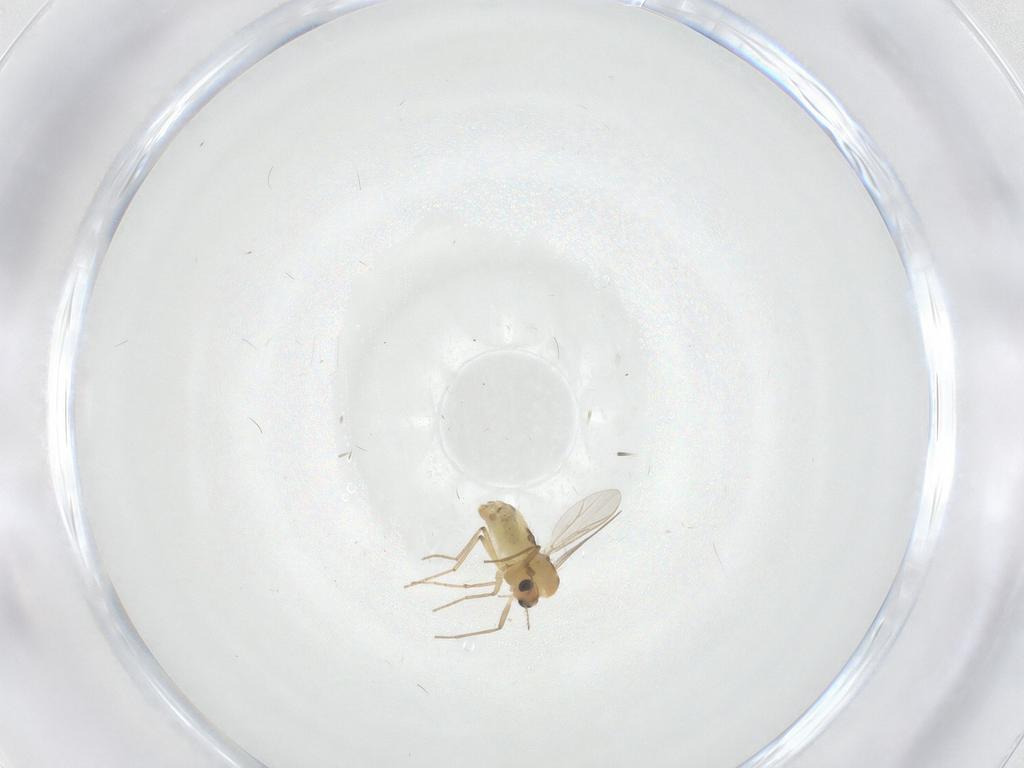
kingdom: Animalia
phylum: Arthropoda
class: Insecta
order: Diptera
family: Chironomidae
